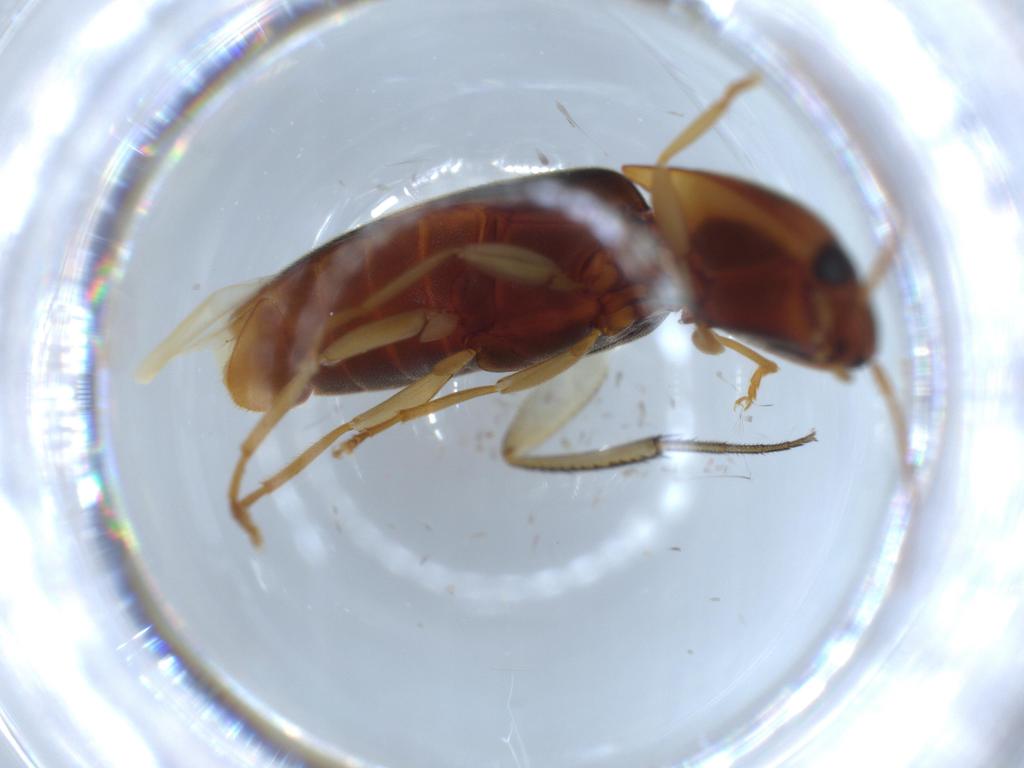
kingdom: Animalia
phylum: Arthropoda
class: Insecta
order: Coleoptera
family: Elateridae
